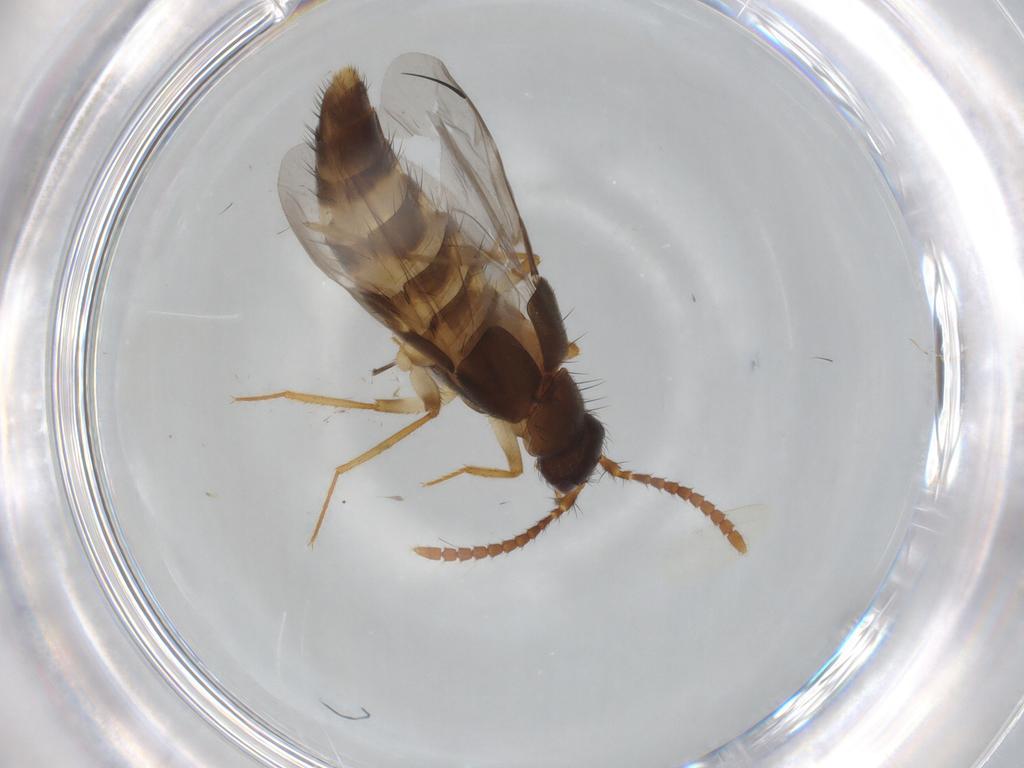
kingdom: Animalia
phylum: Arthropoda
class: Insecta
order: Coleoptera
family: Staphylinidae
